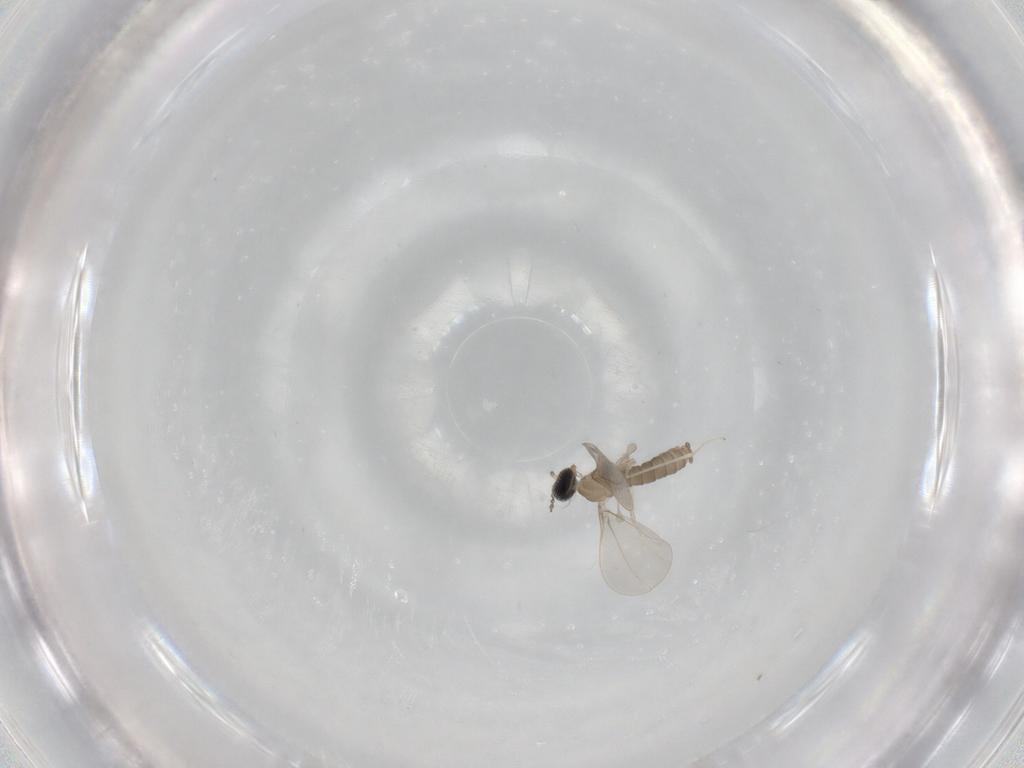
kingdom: Animalia
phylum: Arthropoda
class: Insecta
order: Diptera
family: Cecidomyiidae
